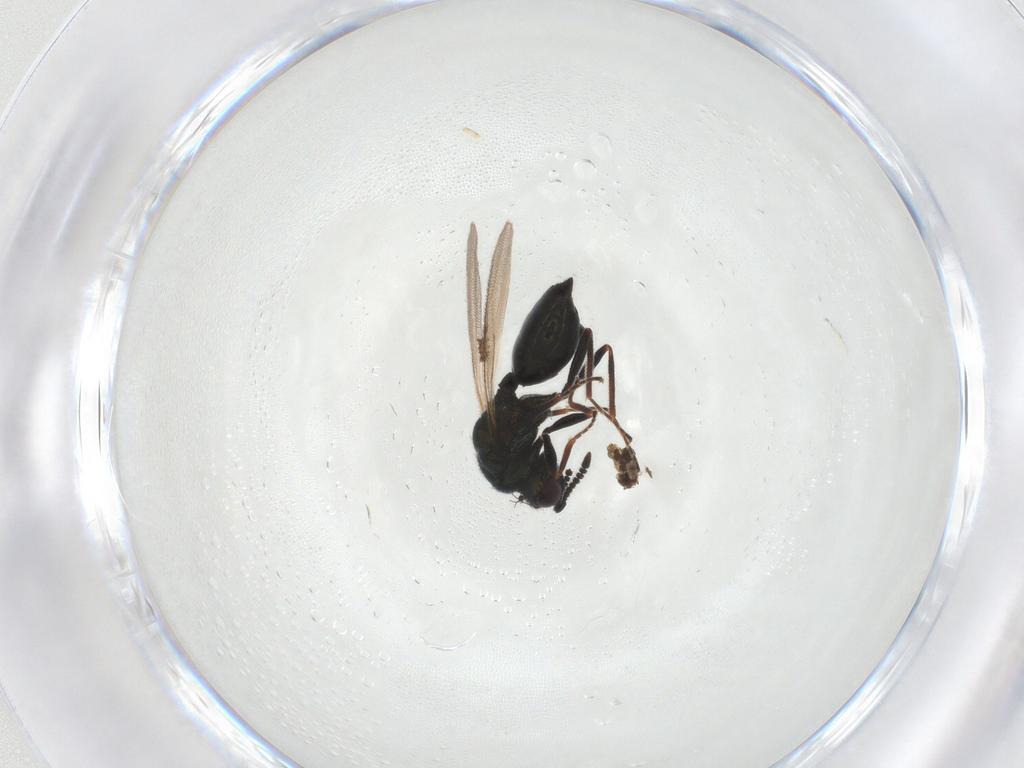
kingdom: Animalia
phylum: Arthropoda
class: Insecta
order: Hymenoptera
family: Chalcidoidea_incertae_sedis
